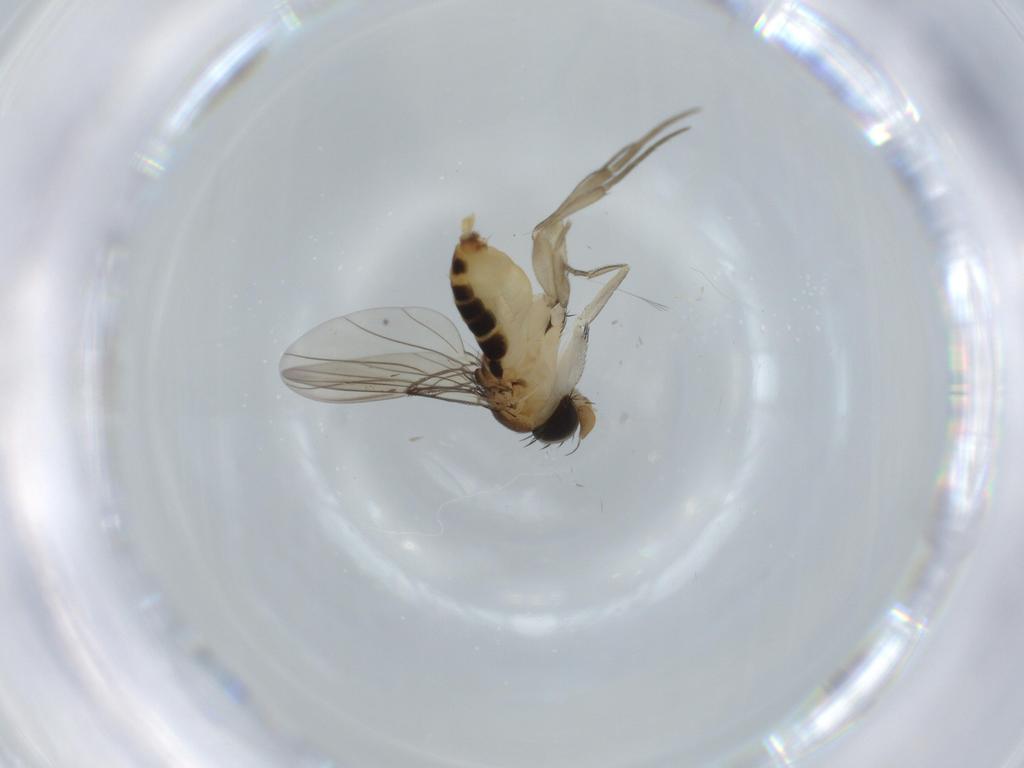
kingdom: Animalia
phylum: Arthropoda
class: Insecta
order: Diptera
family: Phoridae
